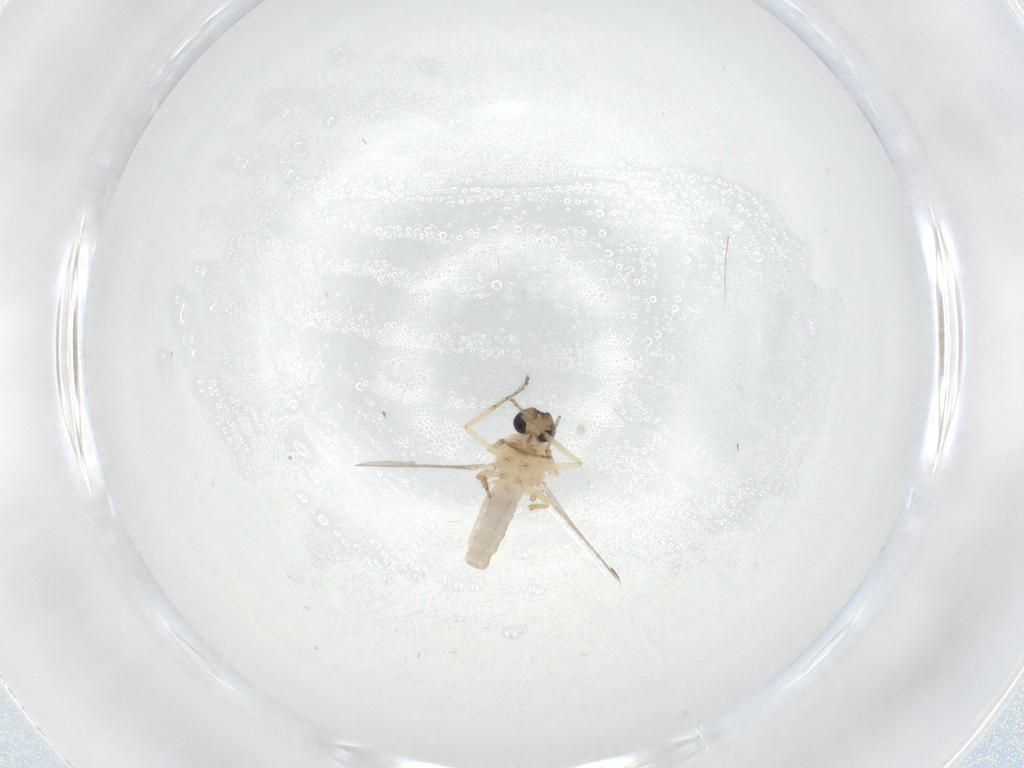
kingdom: Animalia
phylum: Arthropoda
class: Insecta
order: Diptera
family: Ceratopogonidae
